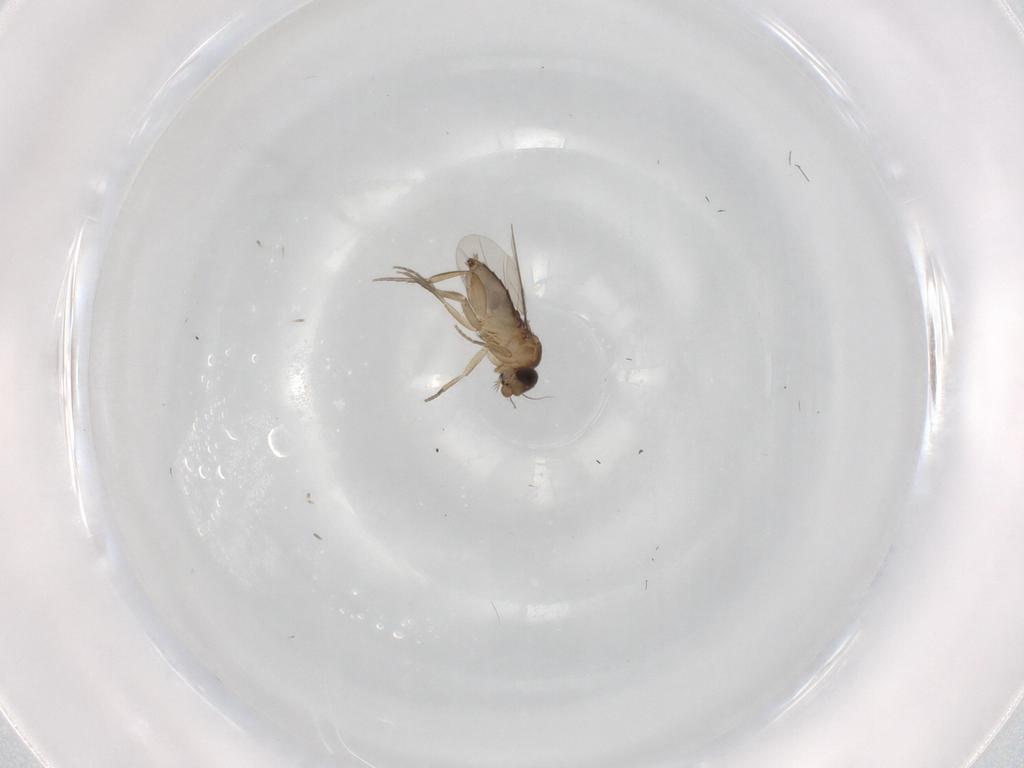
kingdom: Animalia
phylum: Arthropoda
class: Insecta
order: Diptera
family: Phoridae
